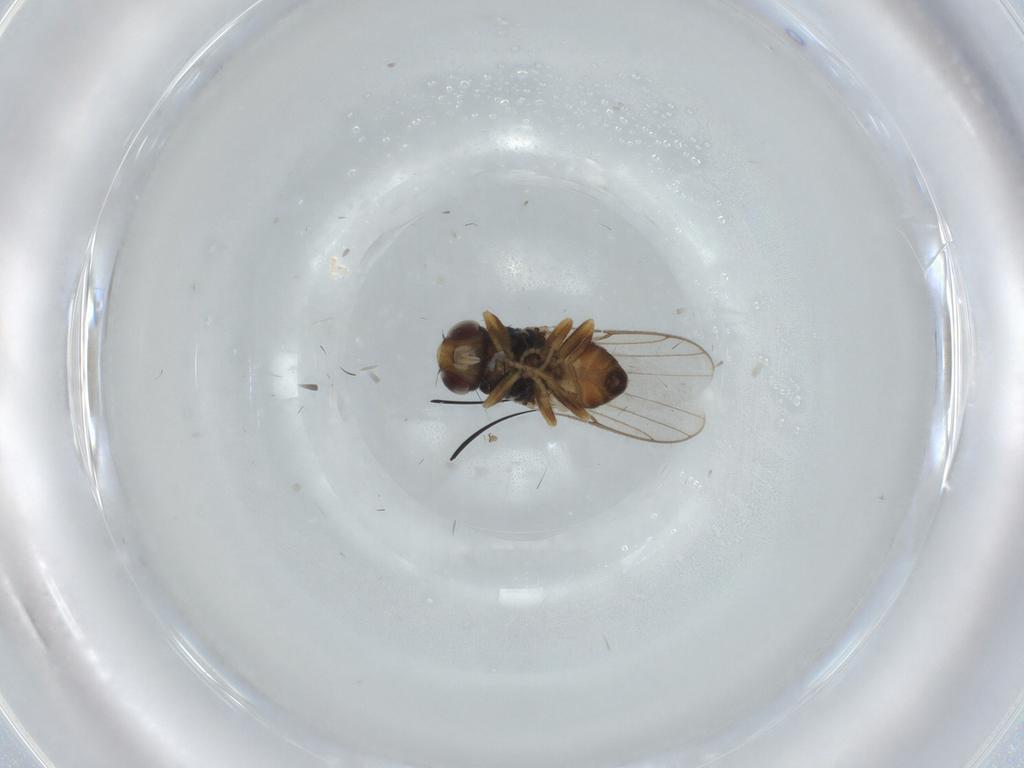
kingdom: Animalia
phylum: Arthropoda
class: Insecta
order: Diptera
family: Chloropidae
